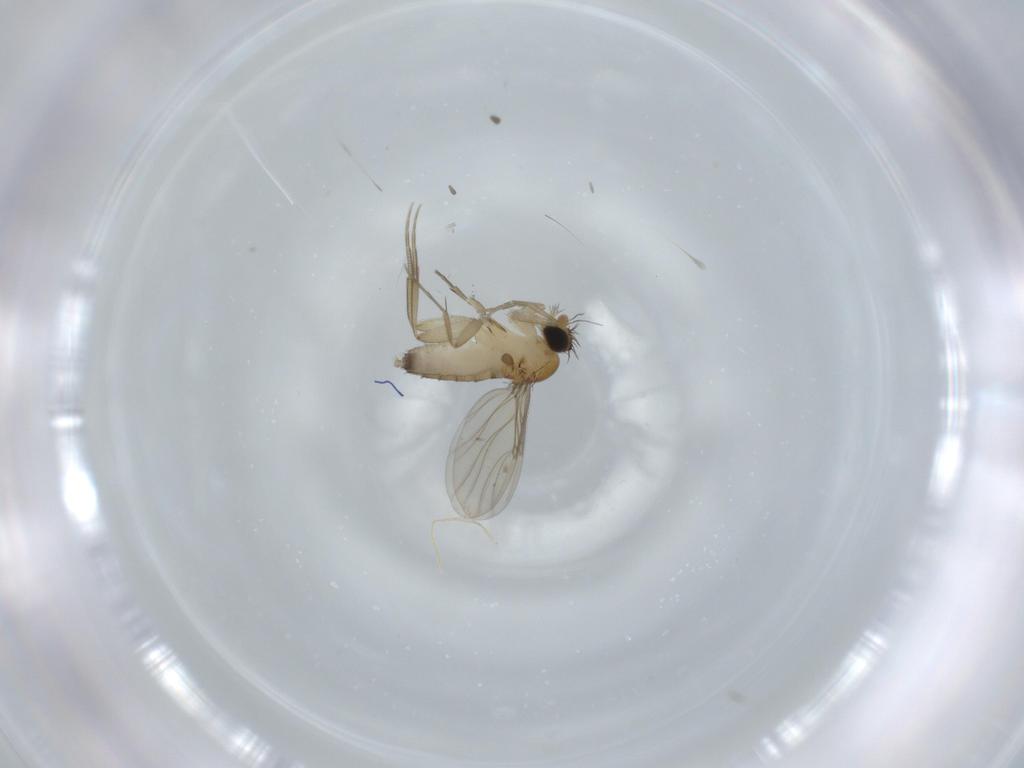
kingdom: Animalia
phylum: Arthropoda
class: Insecta
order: Diptera
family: Phoridae
